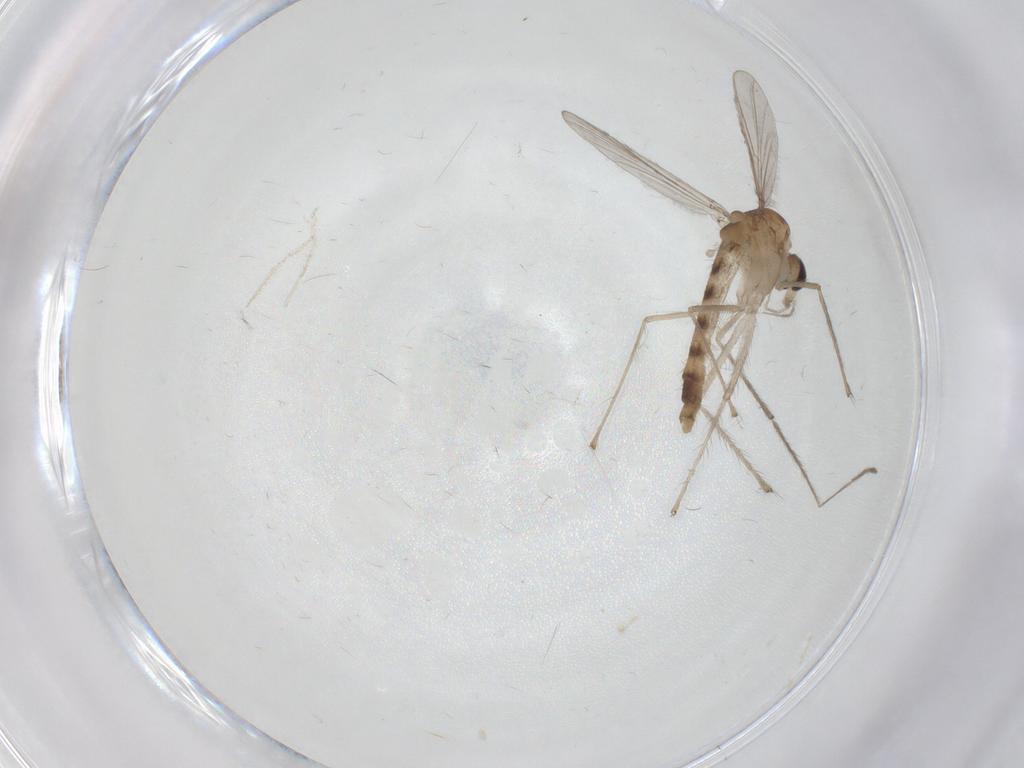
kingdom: Animalia
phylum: Arthropoda
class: Insecta
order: Diptera
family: Chironomidae
